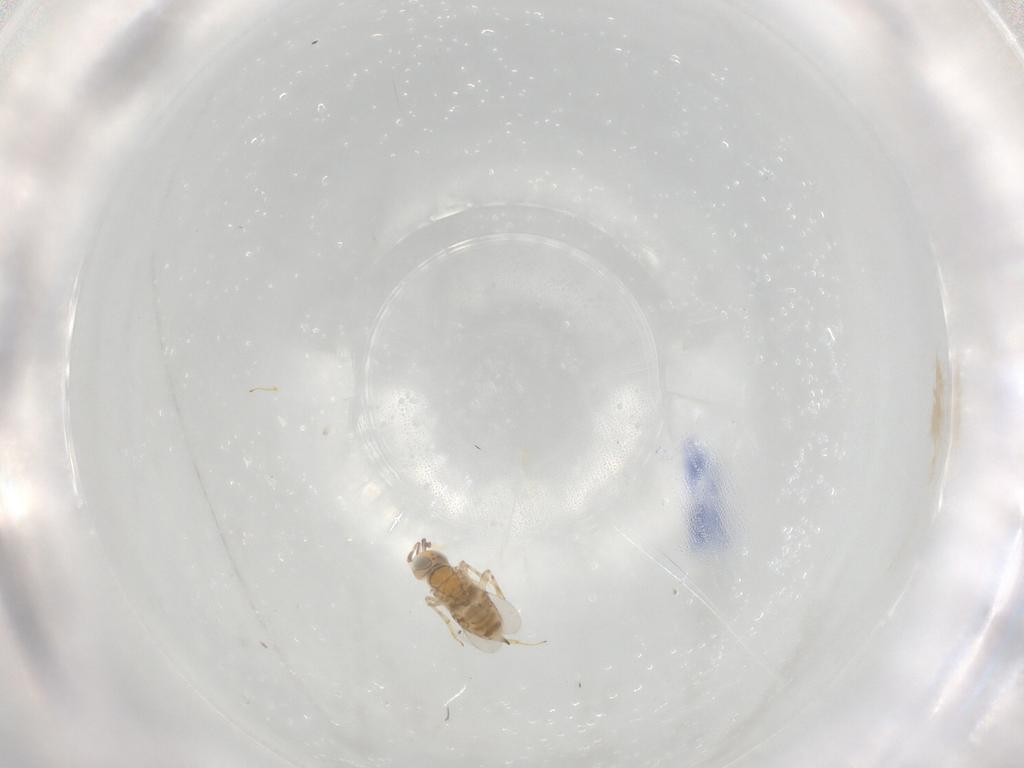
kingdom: Animalia
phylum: Arthropoda
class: Insecta
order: Hymenoptera
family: Encyrtidae
